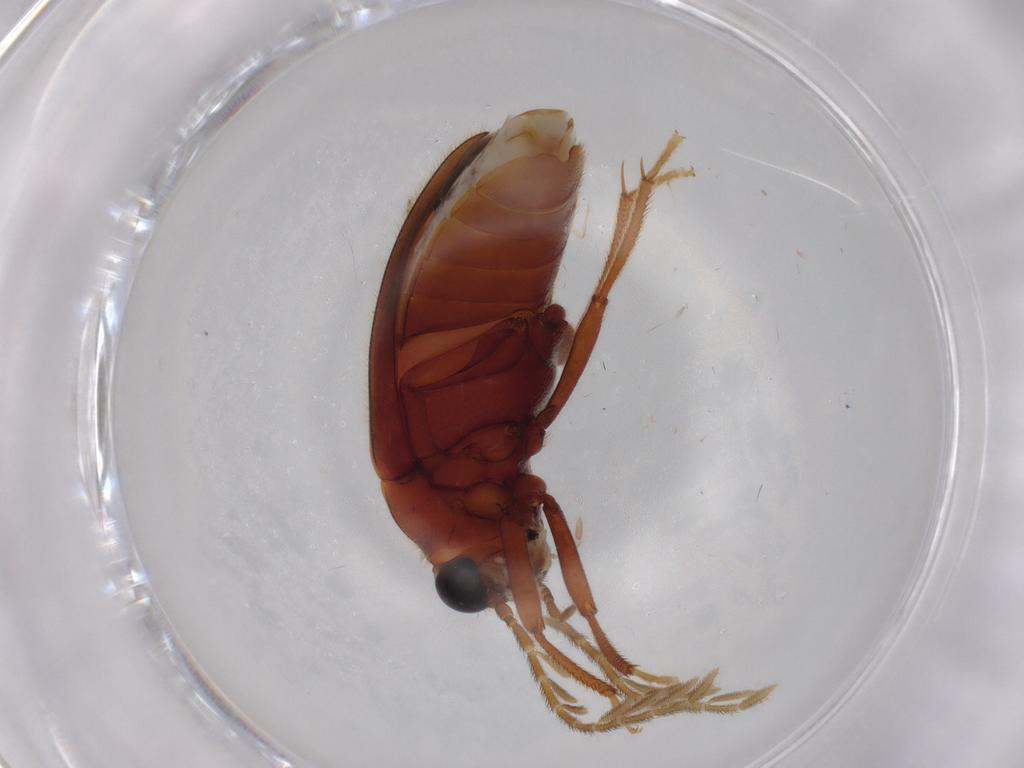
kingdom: Animalia
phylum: Arthropoda
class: Insecta
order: Coleoptera
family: Ptilodactylidae
